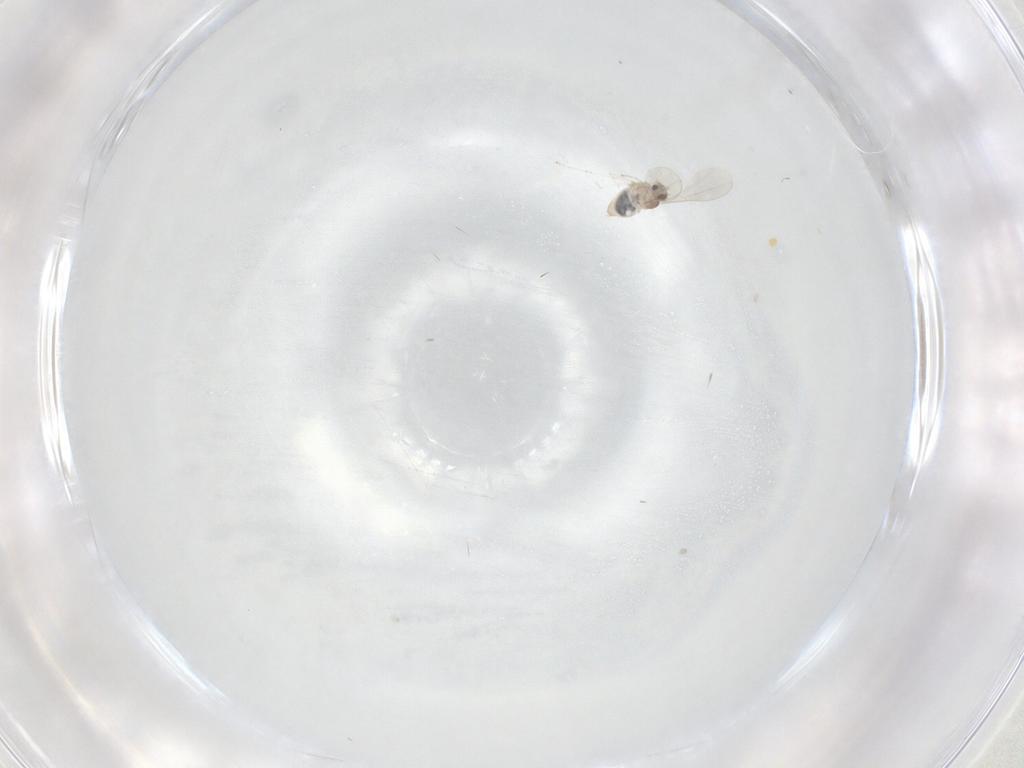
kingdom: Animalia
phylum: Arthropoda
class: Insecta
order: Diptera
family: Cecidomyiidae
